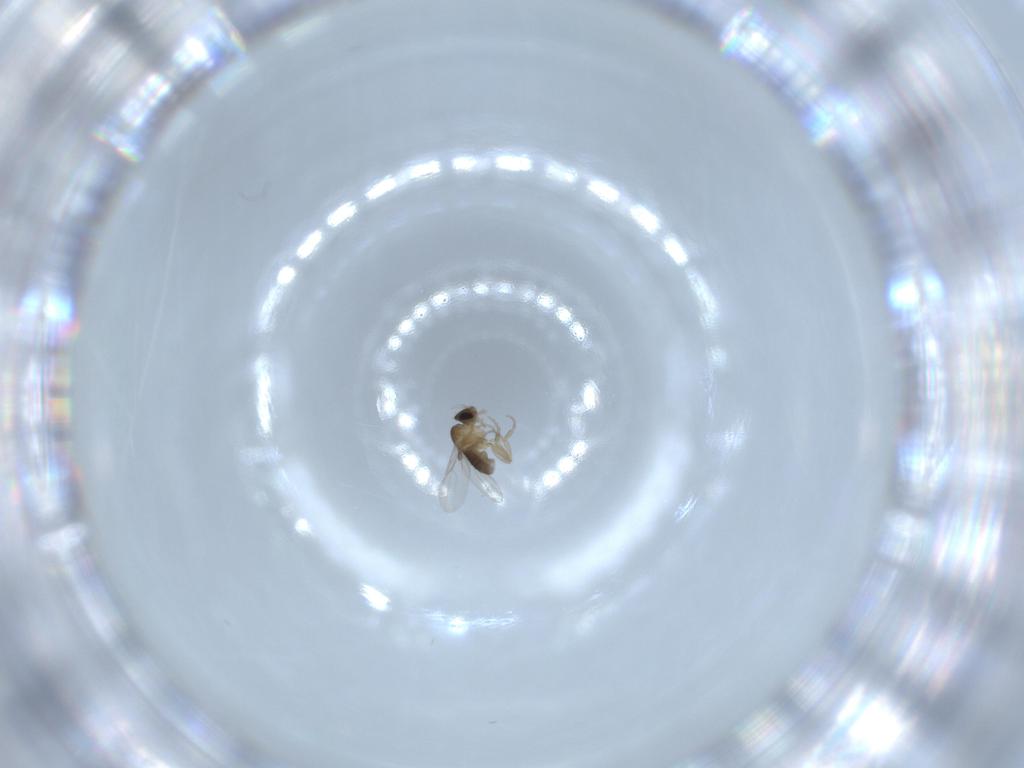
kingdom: Animalia
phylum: Arthropoda
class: Insecta
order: Diptera
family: Phoridae
